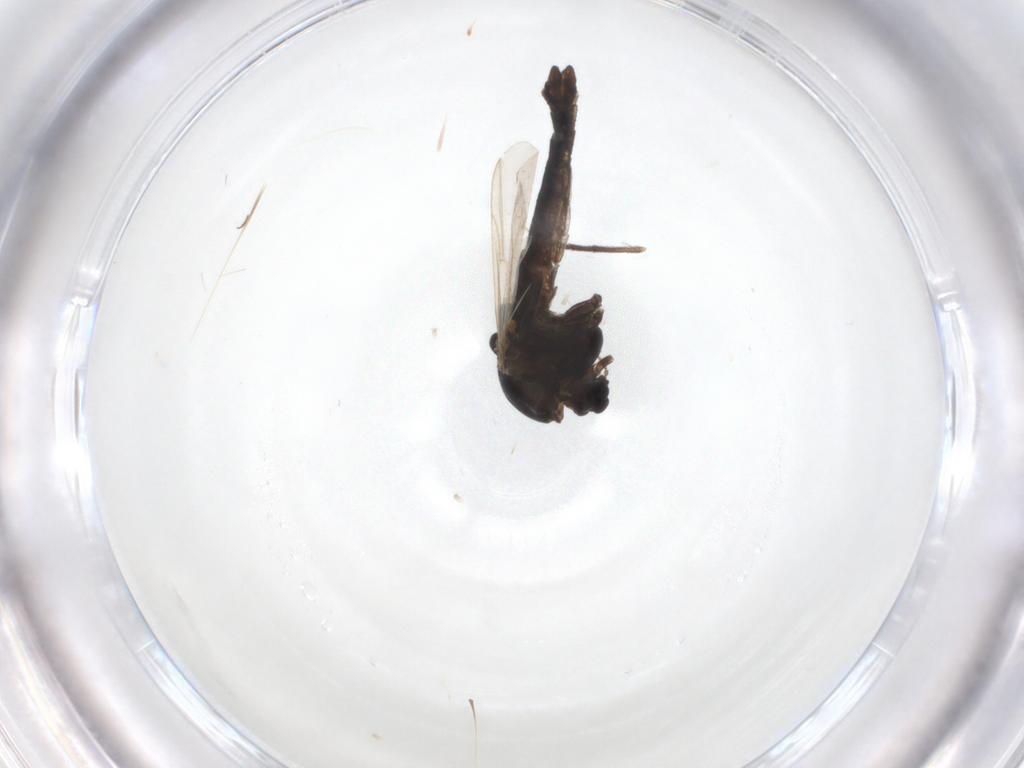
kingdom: Animalia
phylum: Arthropoda
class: Insecta
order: Diptera
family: Chironomidae
